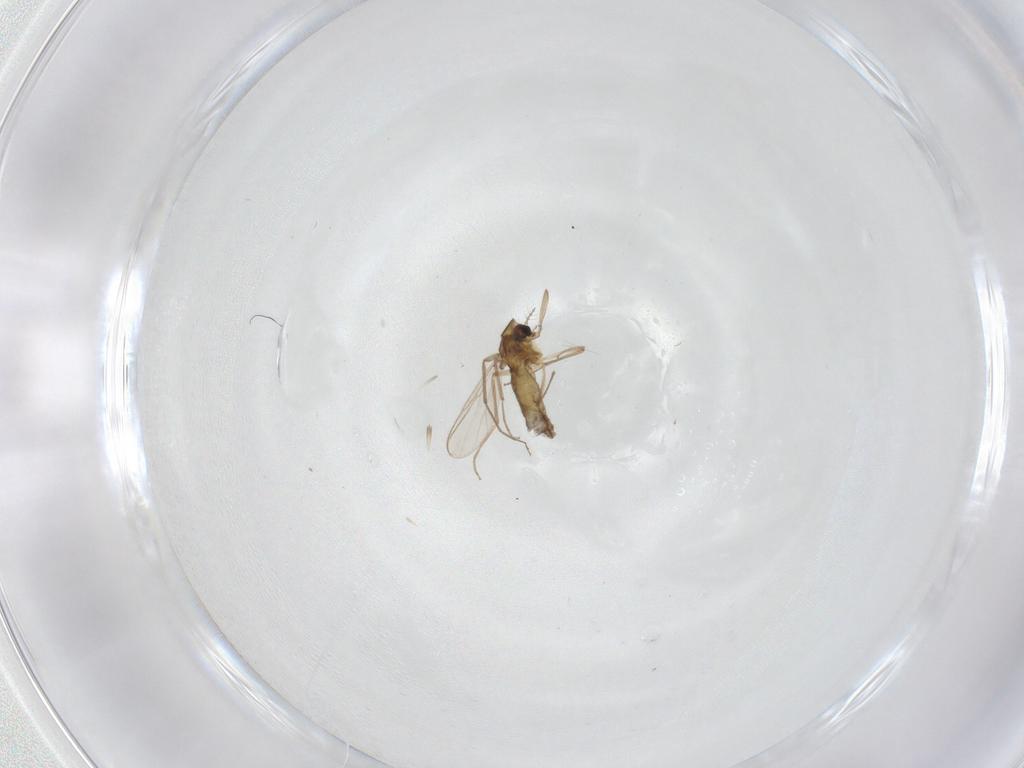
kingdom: Animalia
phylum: Arthropoda
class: Insecta
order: Diptera
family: Chironomidae
